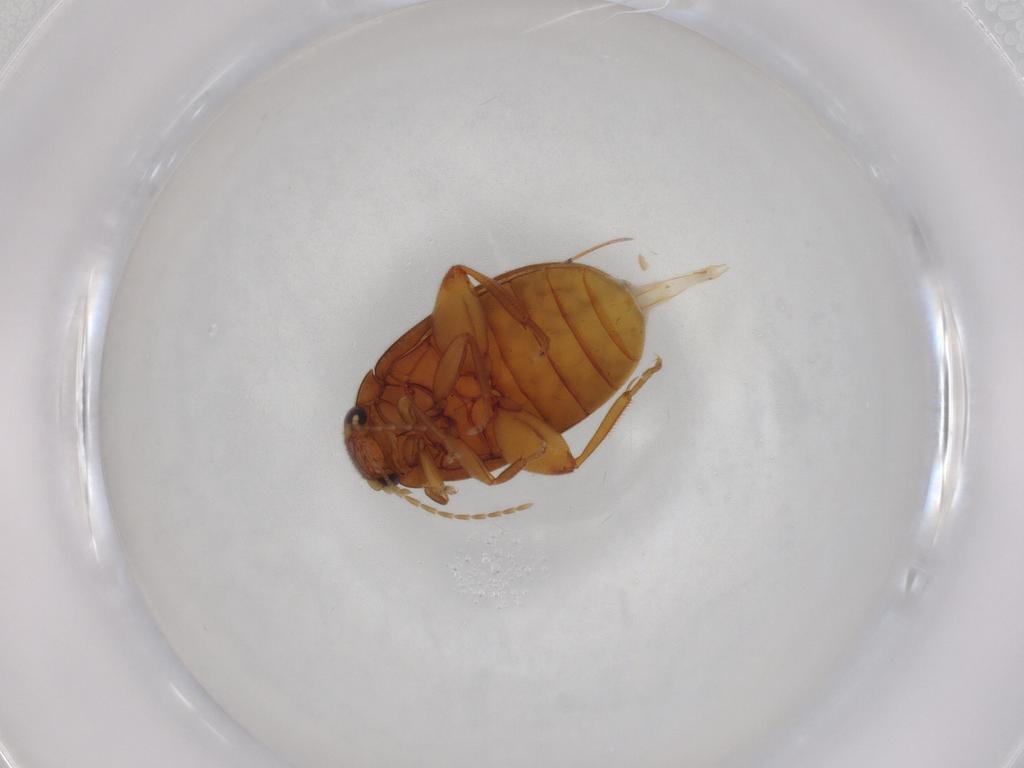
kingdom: Animalia
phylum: Arthropoda
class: Insecta
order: Coleoptera
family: Scirtidae
